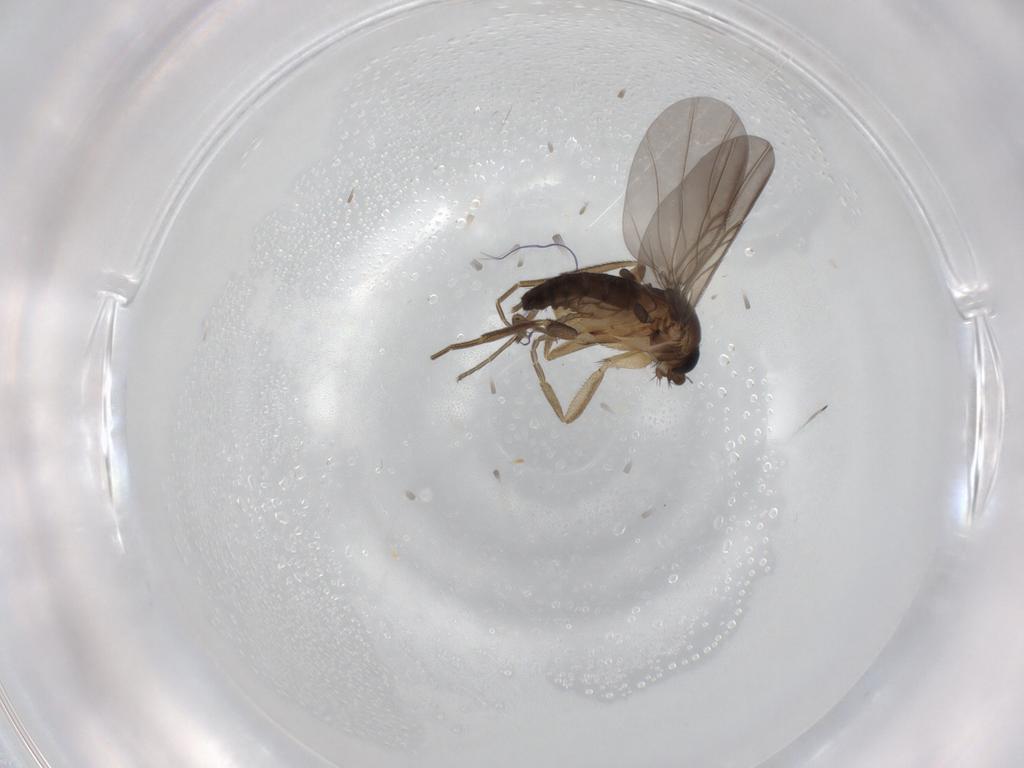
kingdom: Animalia
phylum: Arthropoda
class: Insecta
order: Diptera
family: Phoridae
